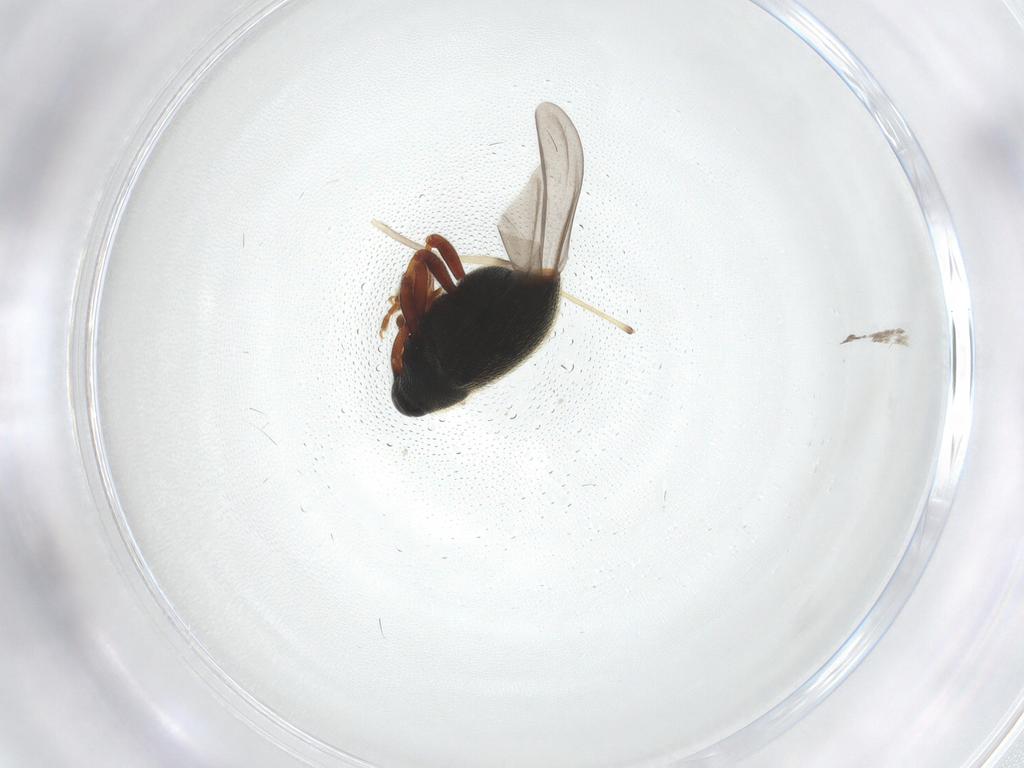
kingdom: Animalia
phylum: Arthropoda
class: Insecta
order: Coleoptera
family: Curculionidae
